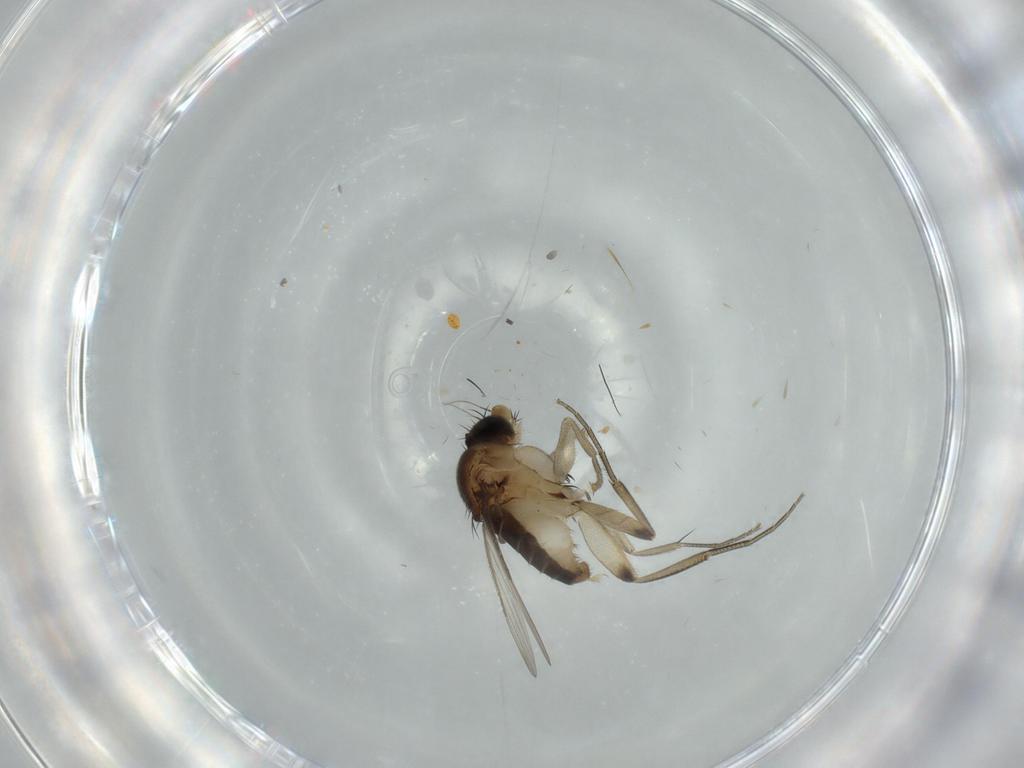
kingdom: Animalia
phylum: Arthropoda
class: Insecta
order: Diptera
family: Phoridae
